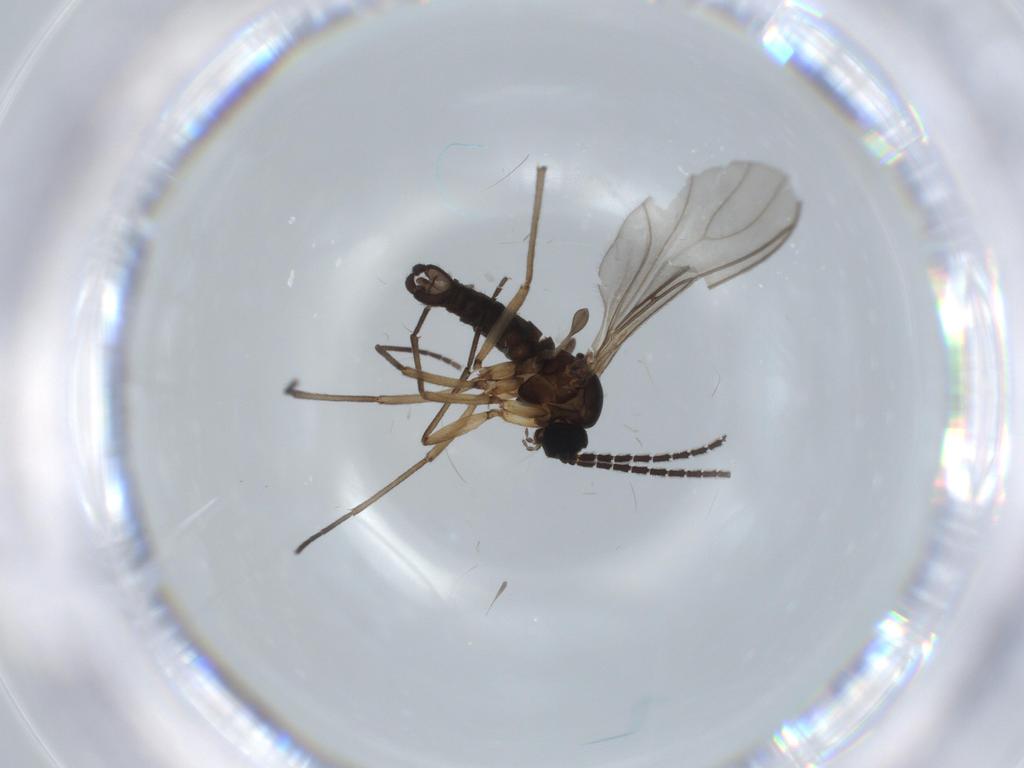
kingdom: Animalia
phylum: Arthropoda
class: Insecta
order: Diptera
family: Sciaridae
